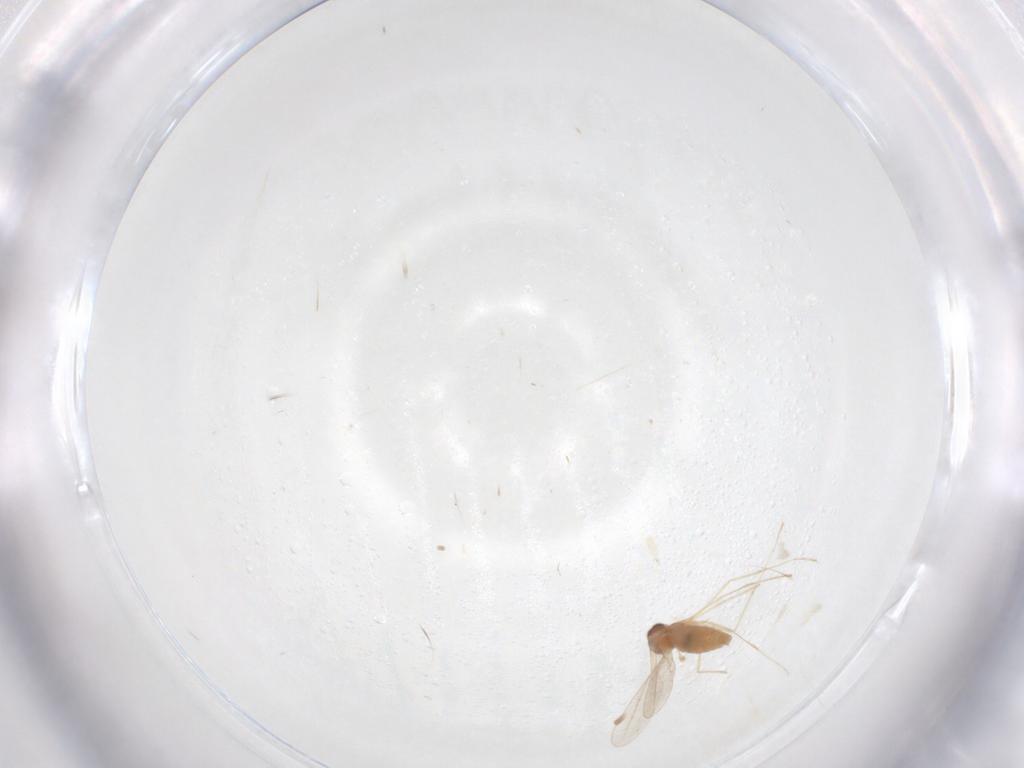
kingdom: Animalia
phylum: Arthropoda
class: Insecta
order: Diptera
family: Cecidomyiidae
